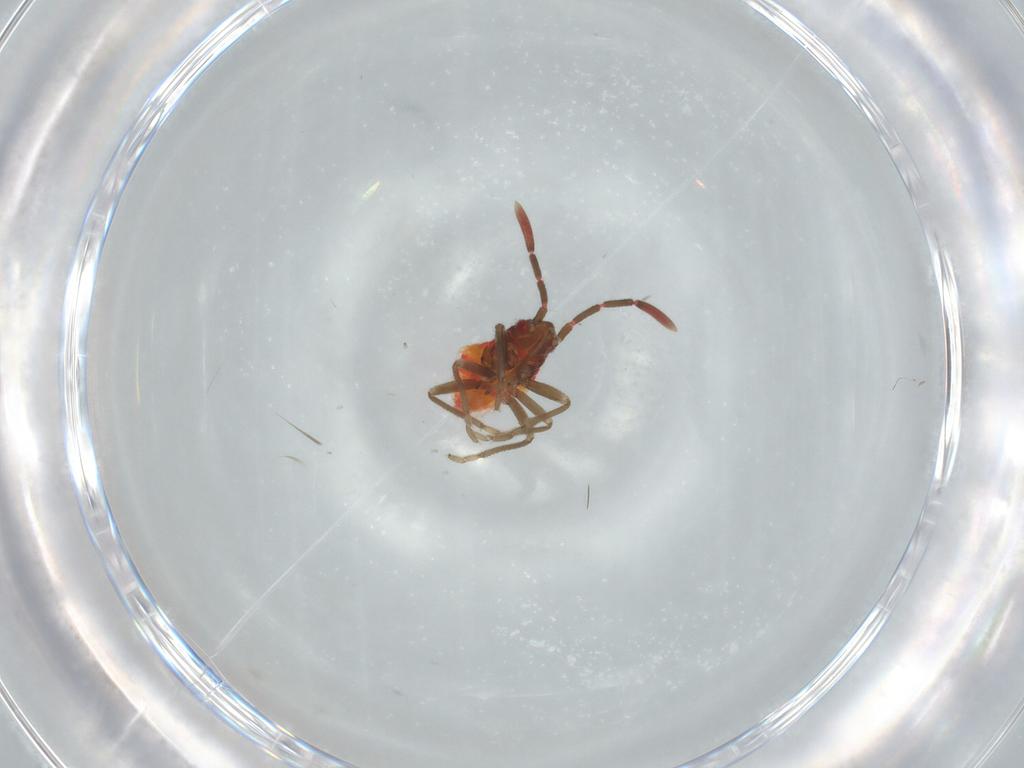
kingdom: Animalia
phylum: Arthropoda
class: Insecta
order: Hemiptera
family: Rhyparochromidae
